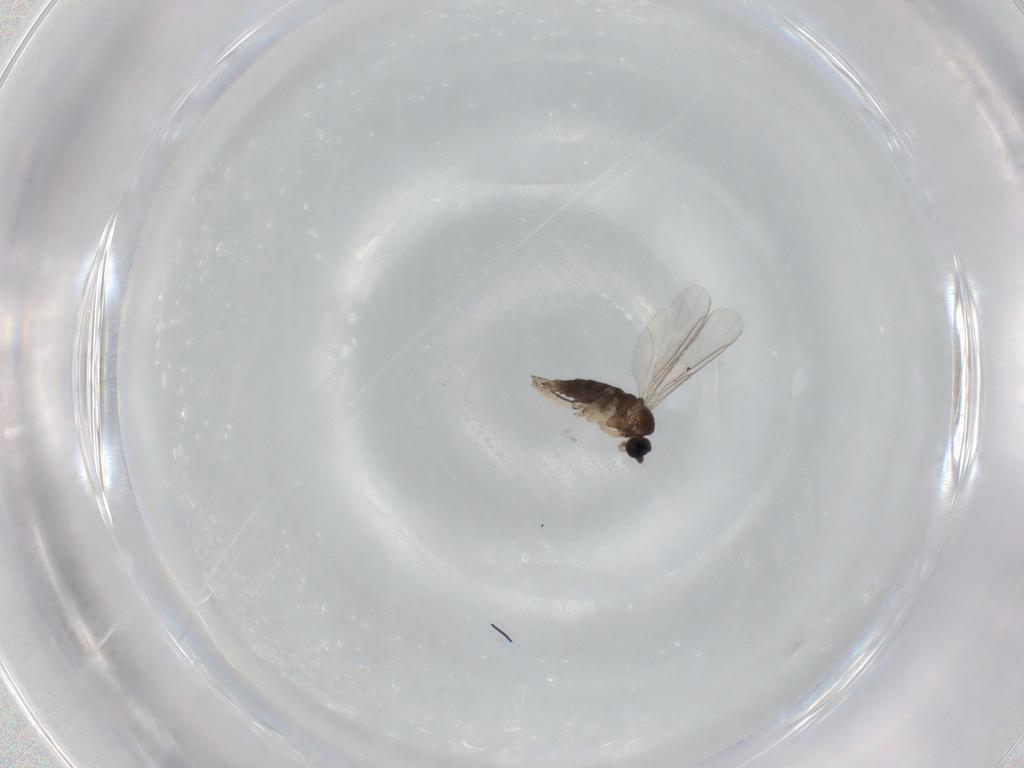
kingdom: Animalia
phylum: Arthropoda
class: Insecta
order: Diptera
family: Sciaridae
